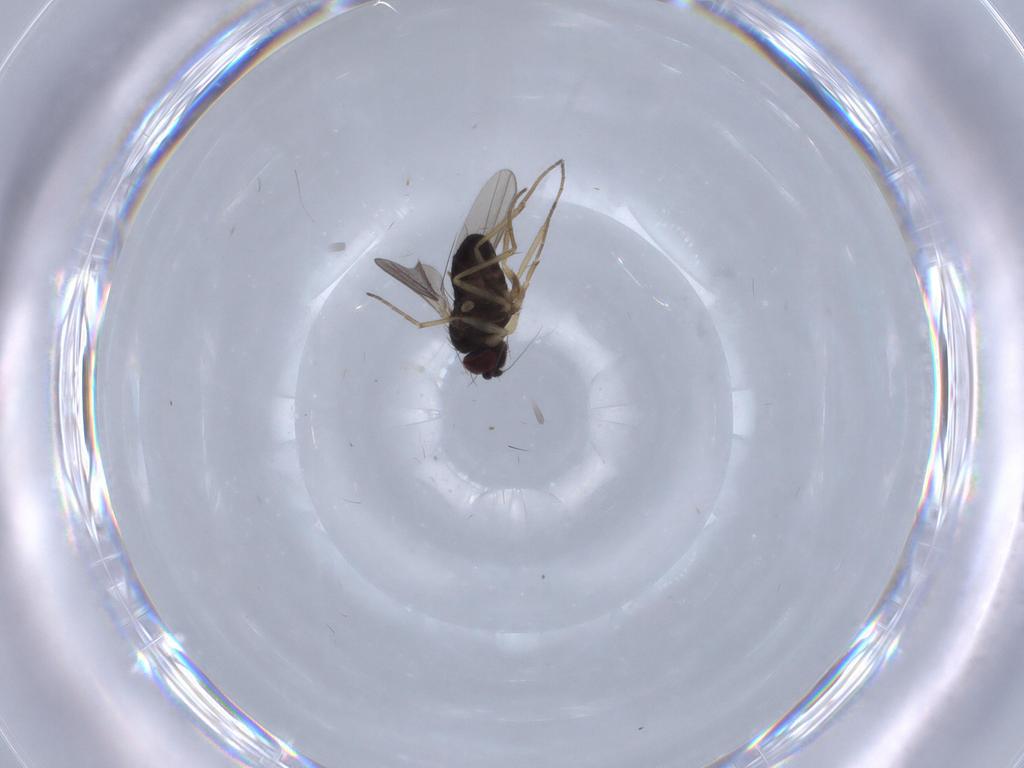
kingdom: Animalia
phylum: Arthropoda
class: Insecta
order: Diptera
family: Dolichopodidae
